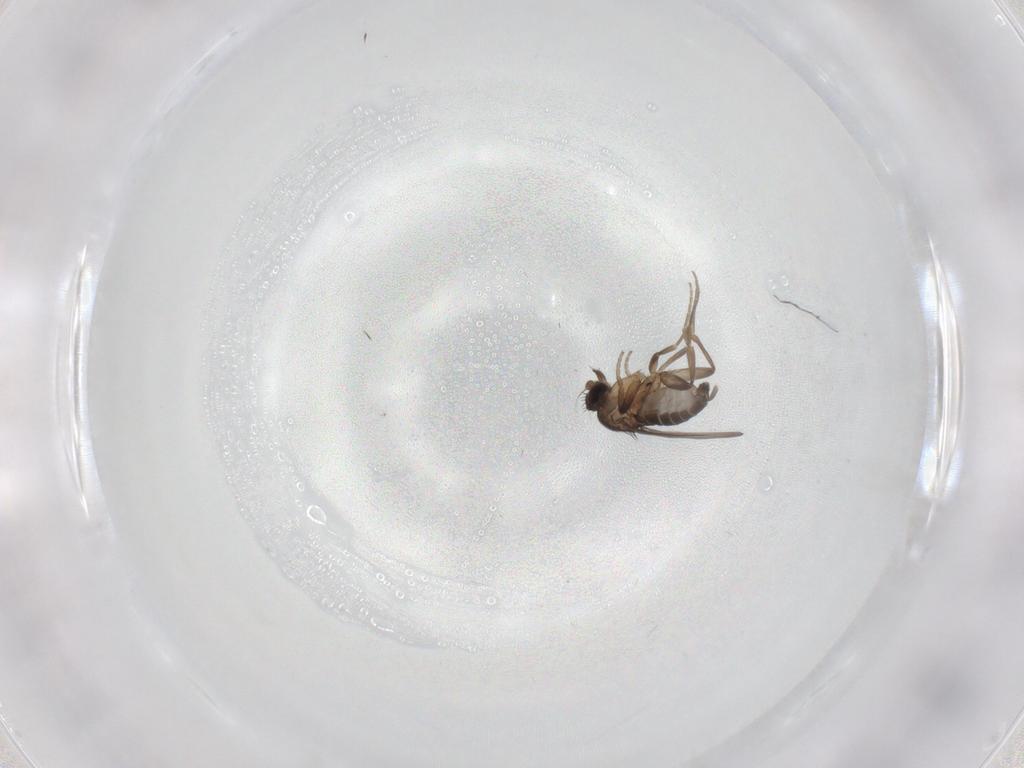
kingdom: Animalia
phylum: Arthropoda
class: Insecta
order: Diptera
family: Phoridae
